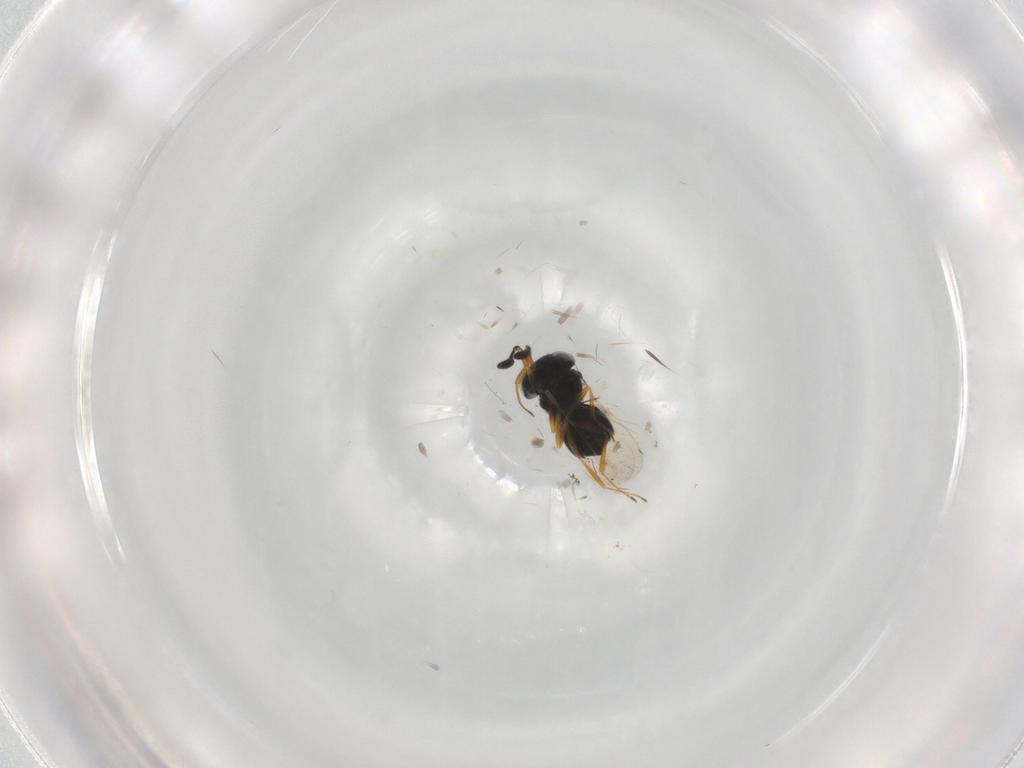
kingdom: Animalia
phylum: Arthropoda
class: Insecta
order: Hymenoptera
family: Scelionidae
